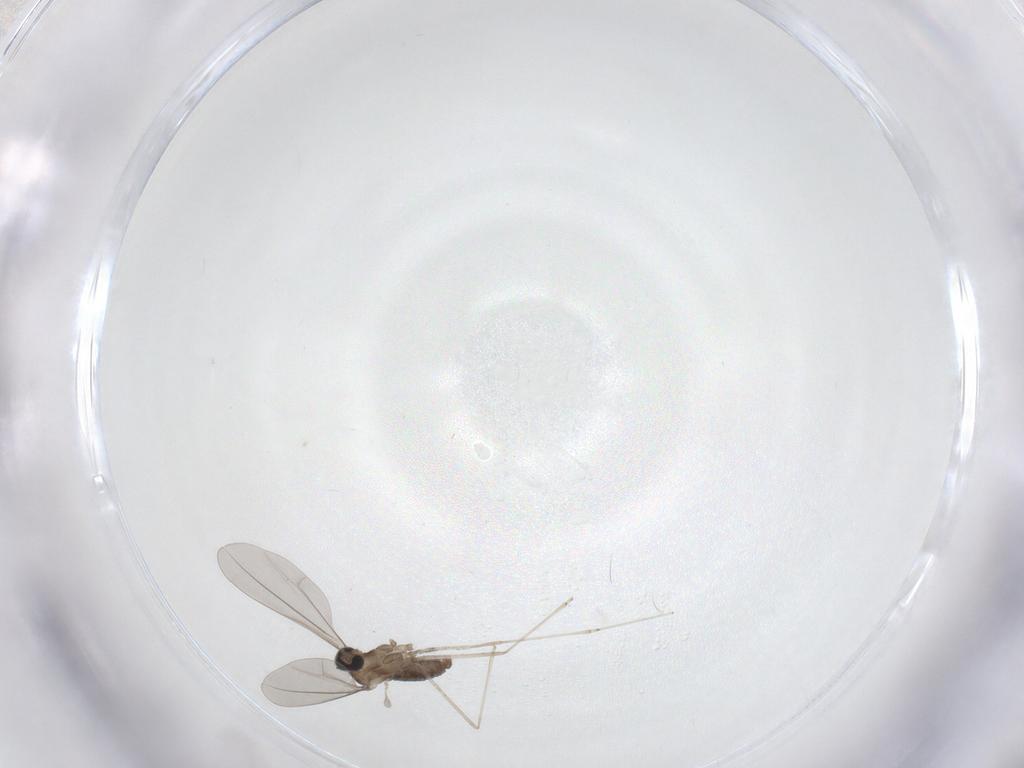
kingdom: Animalia
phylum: Arthropoda
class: Insecta
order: Diptera
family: Cecidomyiidae
